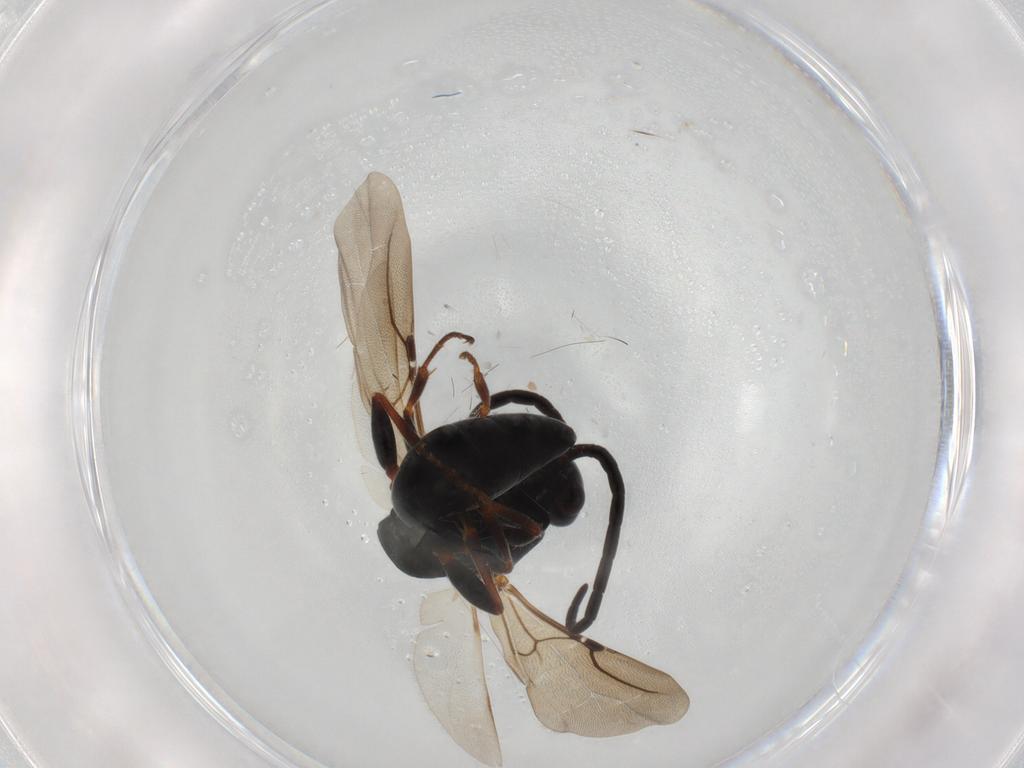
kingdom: Animalia
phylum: Arthropoda
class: Insecta
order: Hymenoptera
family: Bethylidae
